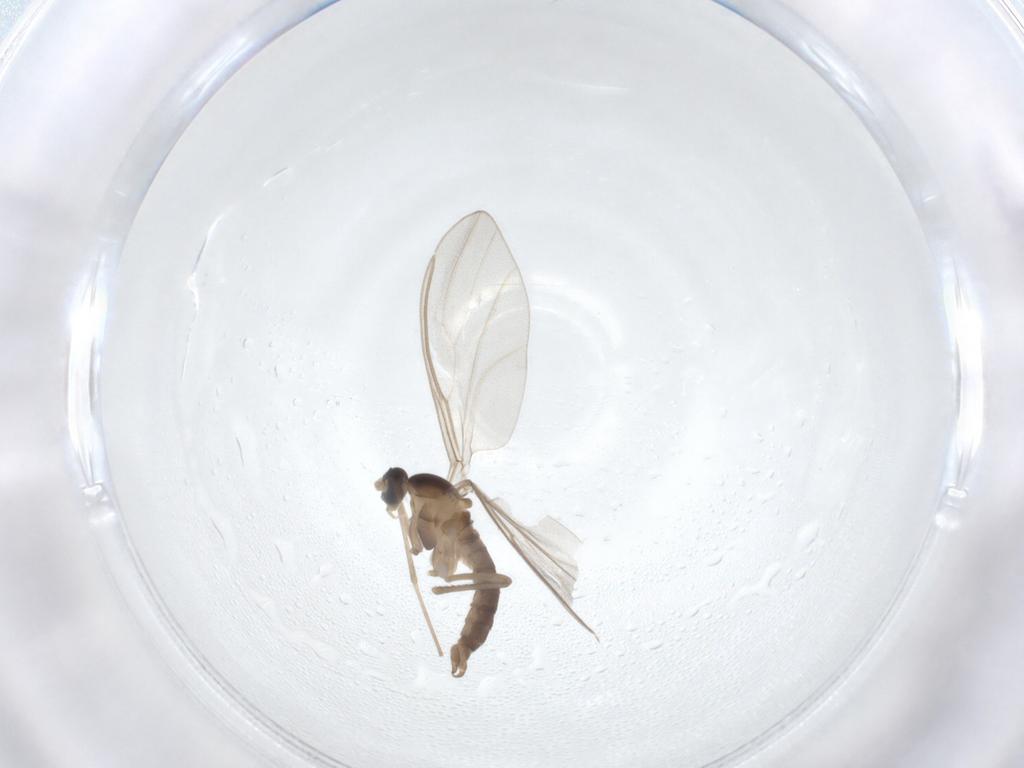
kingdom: Animalia
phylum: Arthropoda
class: Insecta
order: Diptera
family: Cecidomyiidae
